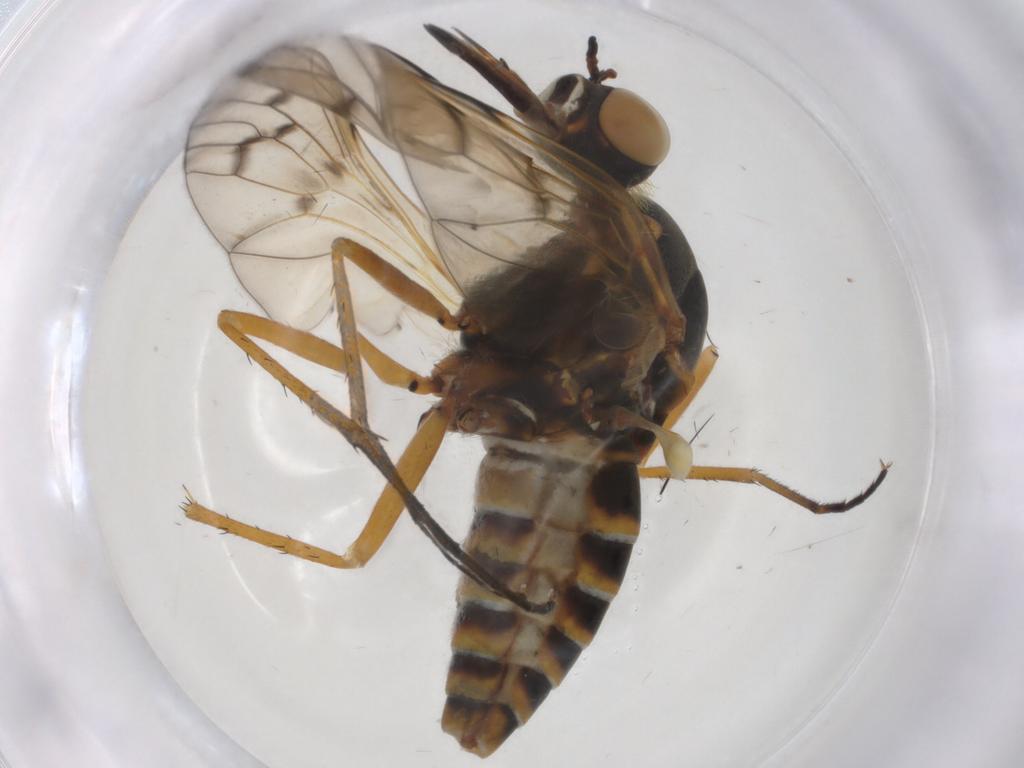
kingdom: Animalia
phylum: Arthropoda
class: Insecta
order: Diptera
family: Bombyliidae
